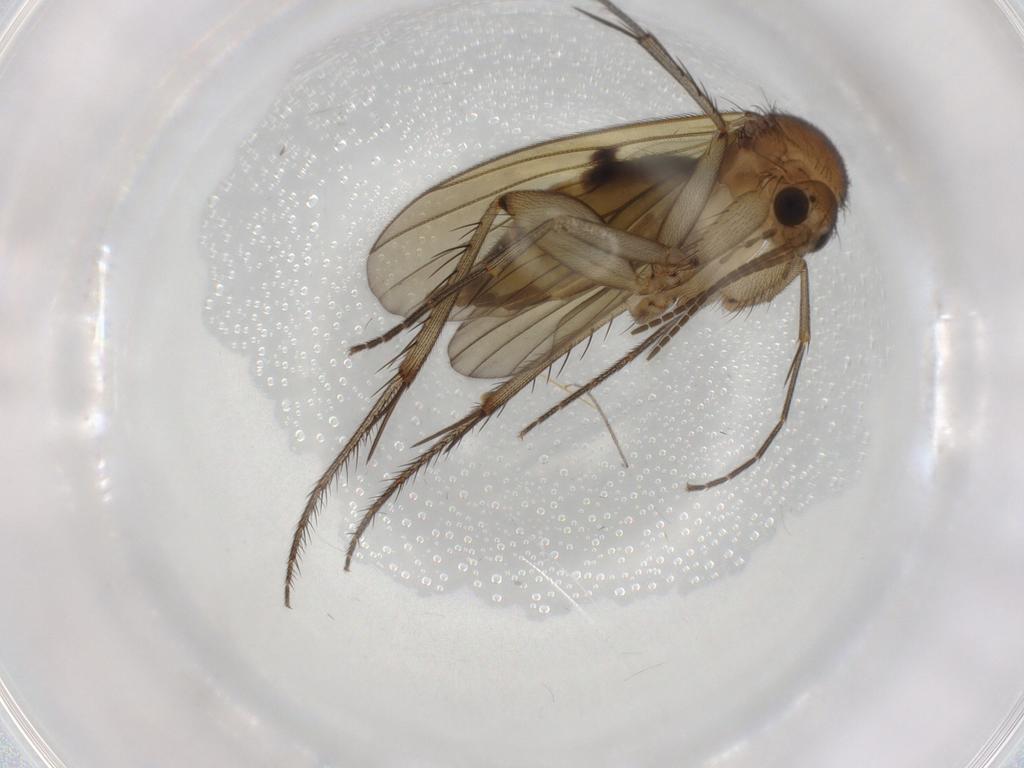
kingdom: Animalia
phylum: Arthropoda
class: Insecta
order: Diptera
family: Mycetophilidae
